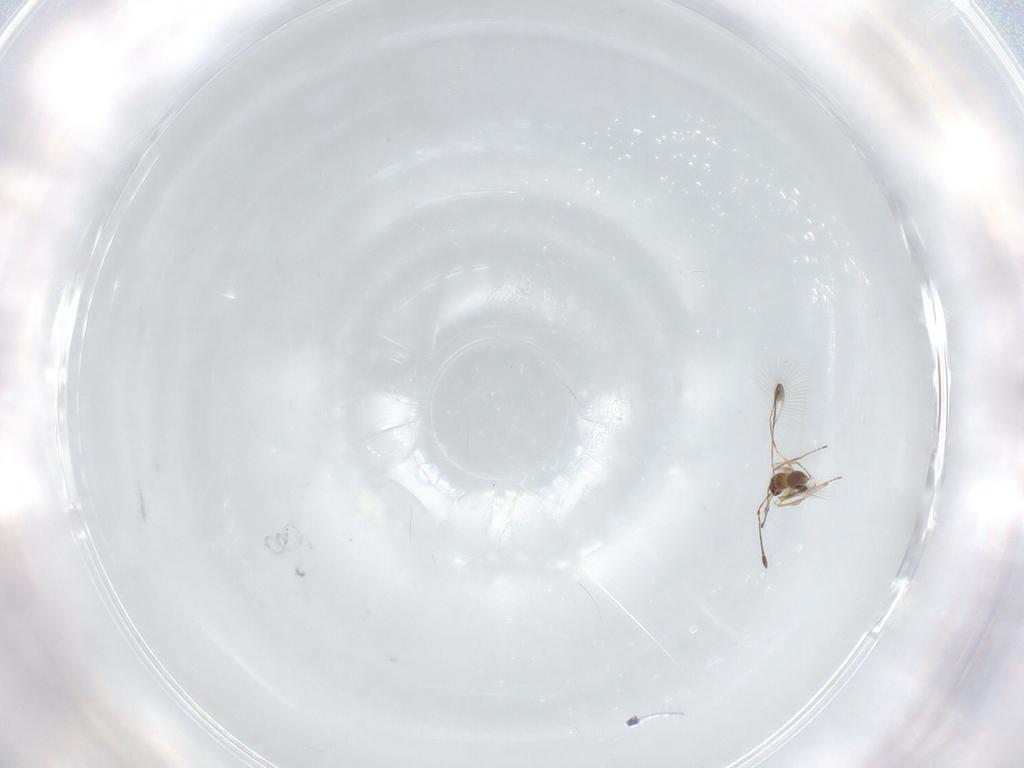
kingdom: Animalia
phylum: Arthropoda
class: Insecta
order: Hymenoptera
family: Mymaridae
